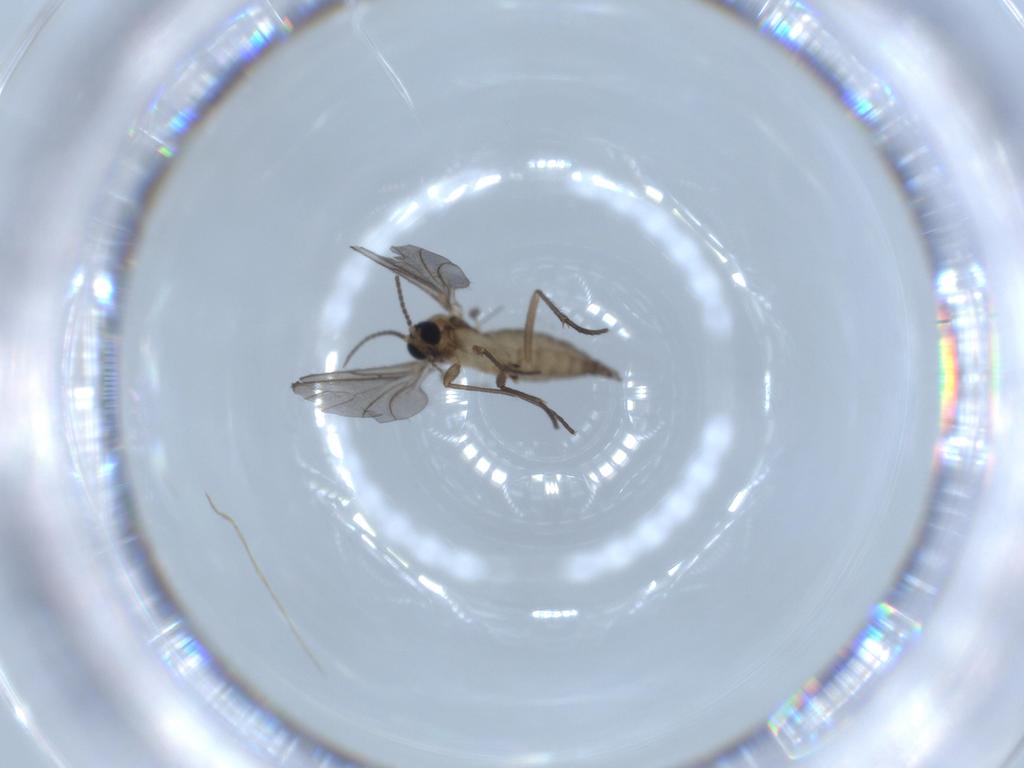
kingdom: Animalia
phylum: Arthropoda
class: Insecta
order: Diptera
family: Sciaridae
